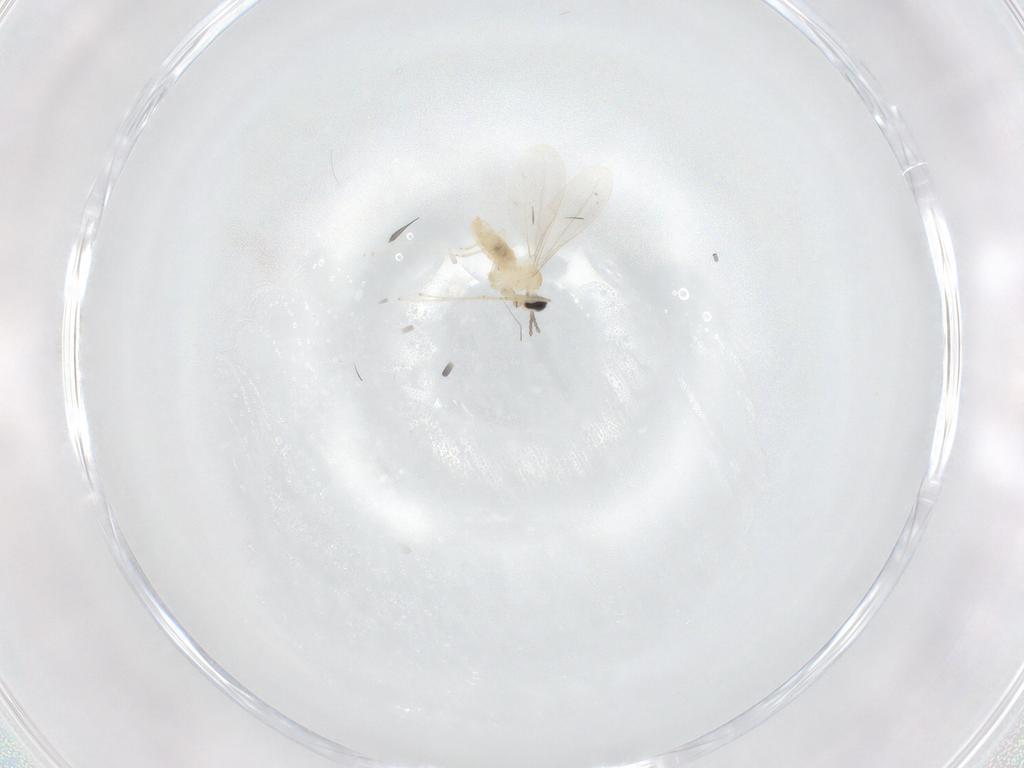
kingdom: Animalia
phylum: Arthropoda
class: Insecta
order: Diptera
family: Cecidomyiidae
